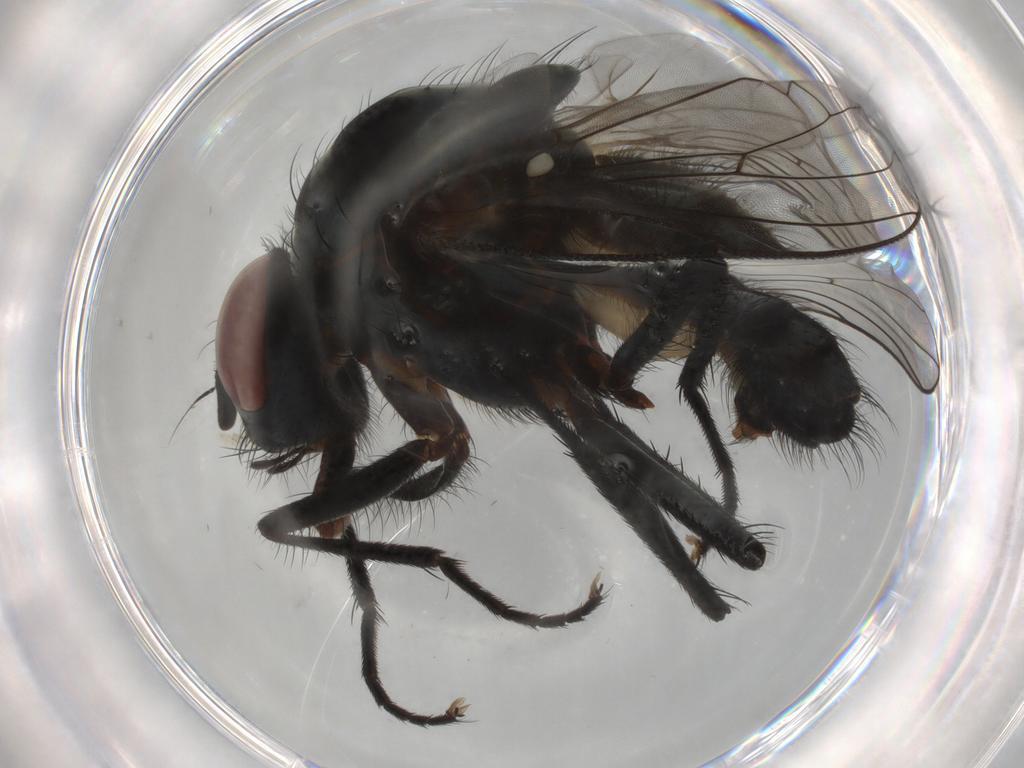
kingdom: Animalia
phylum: Arthropoda
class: Insecta
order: Diptera
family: Anthomyiidae
